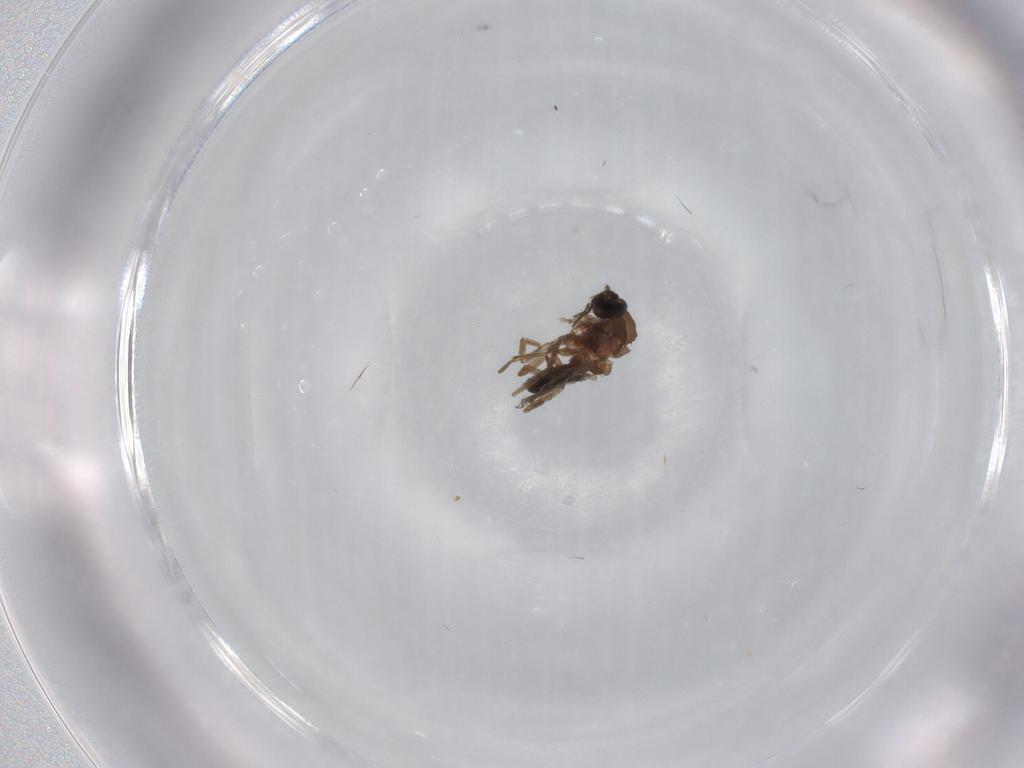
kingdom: Animalia
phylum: Arthropoda
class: Insecta
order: Diptera
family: Chironomidae
